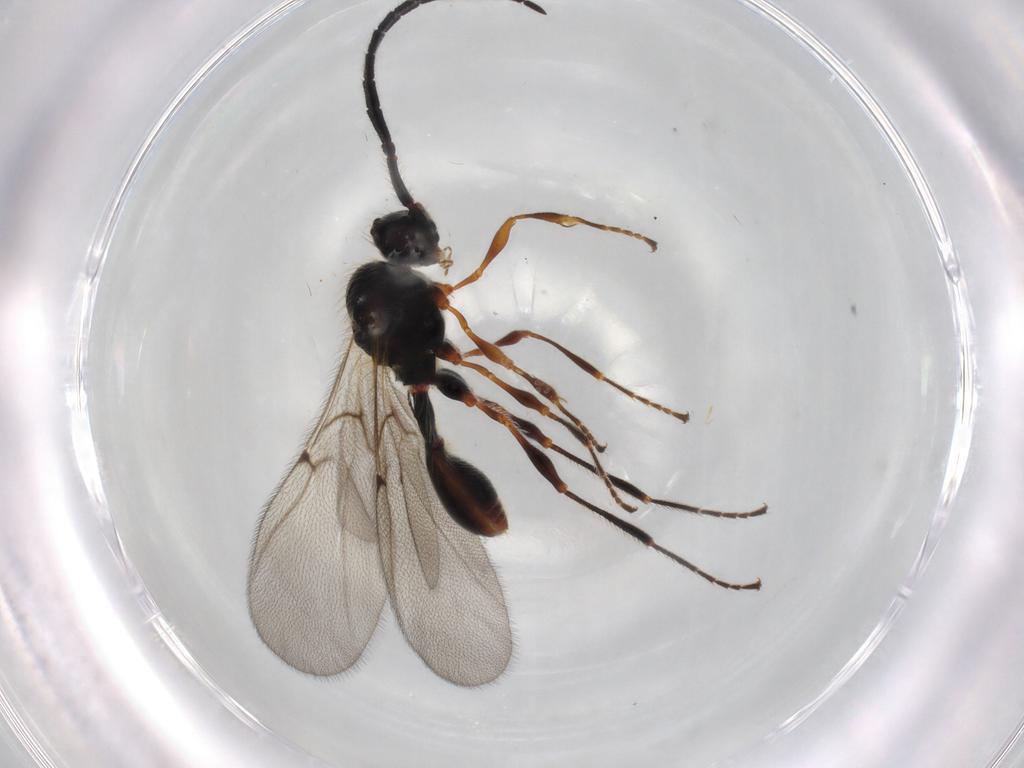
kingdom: Animalia
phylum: Arthropoda
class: Insecta
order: Hymenoptera
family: Diapriidae
